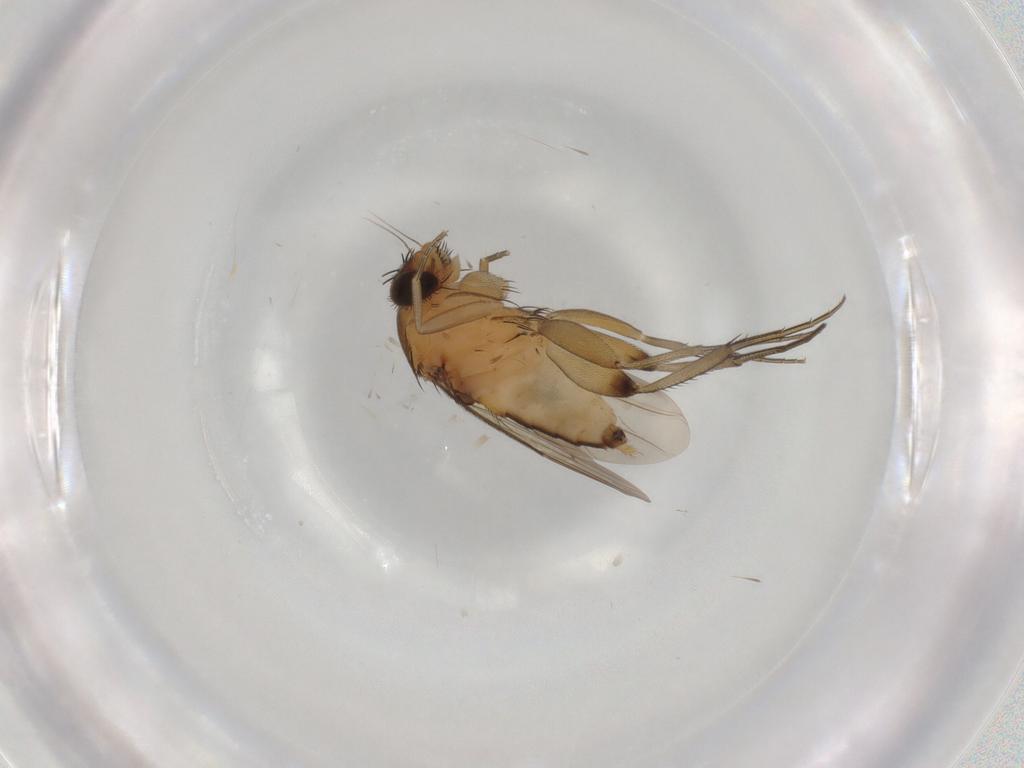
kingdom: Animalia
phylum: Arthropoda
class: Insecta
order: Diptera
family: Phoridae
